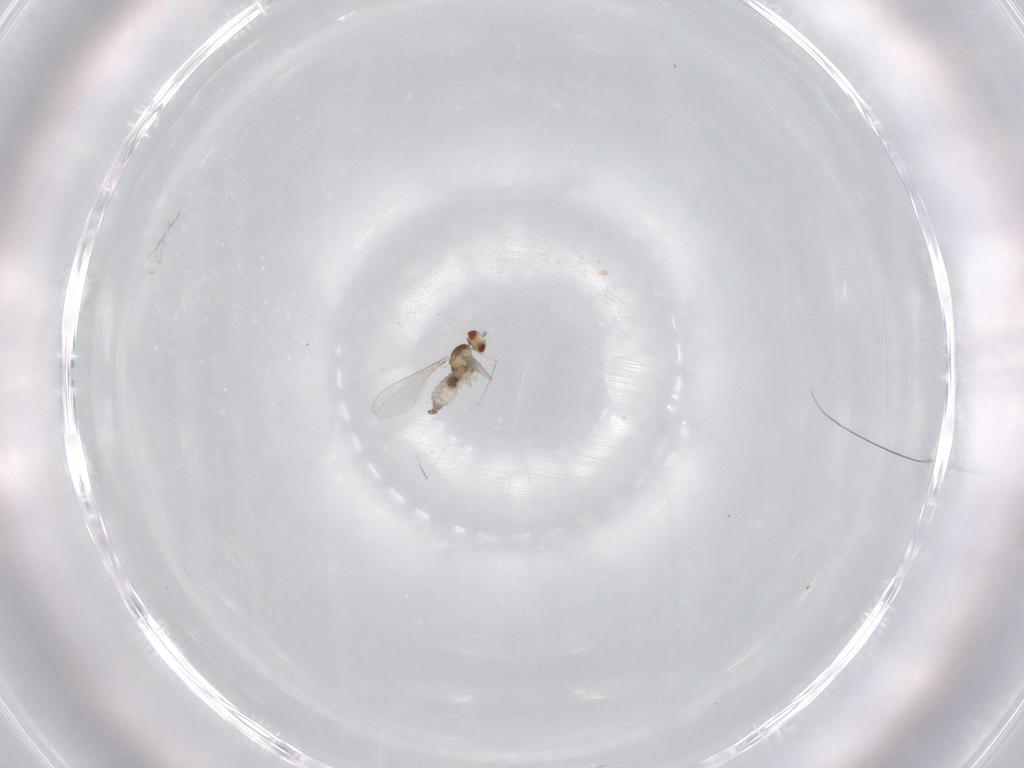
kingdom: Animalia
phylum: Arthropoda
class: Insecta
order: Diptera
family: Cecidomyiidae
